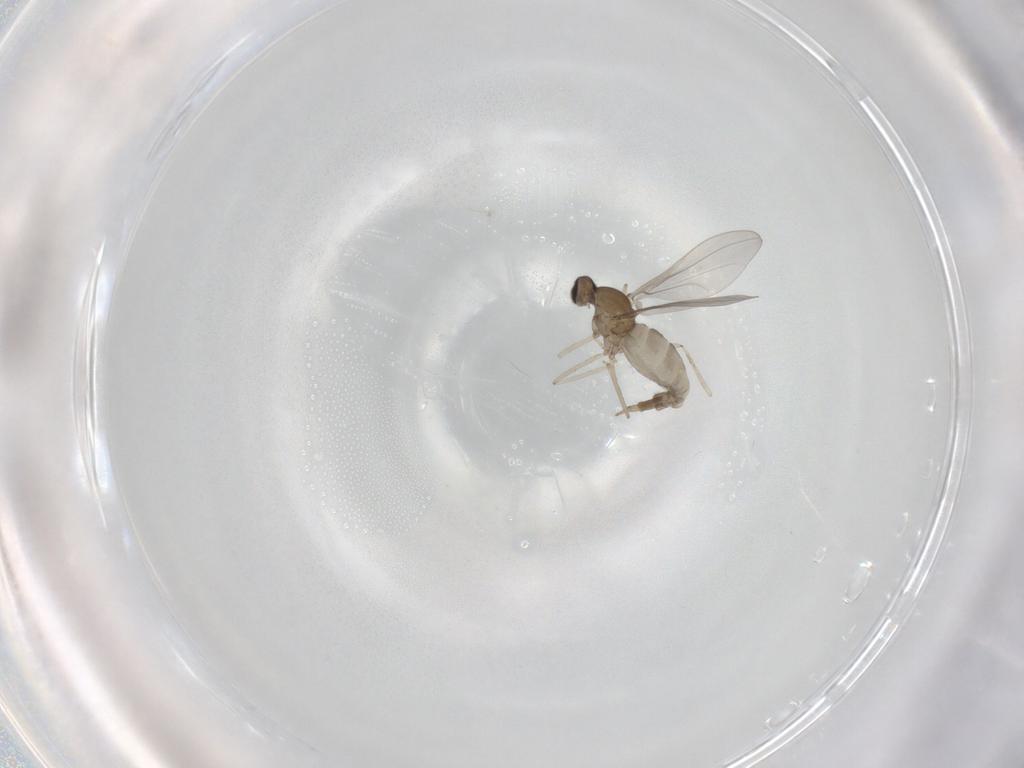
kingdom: Animalia
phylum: Arthropoda
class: Insecta
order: Diptera
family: Cecidomyiidae
